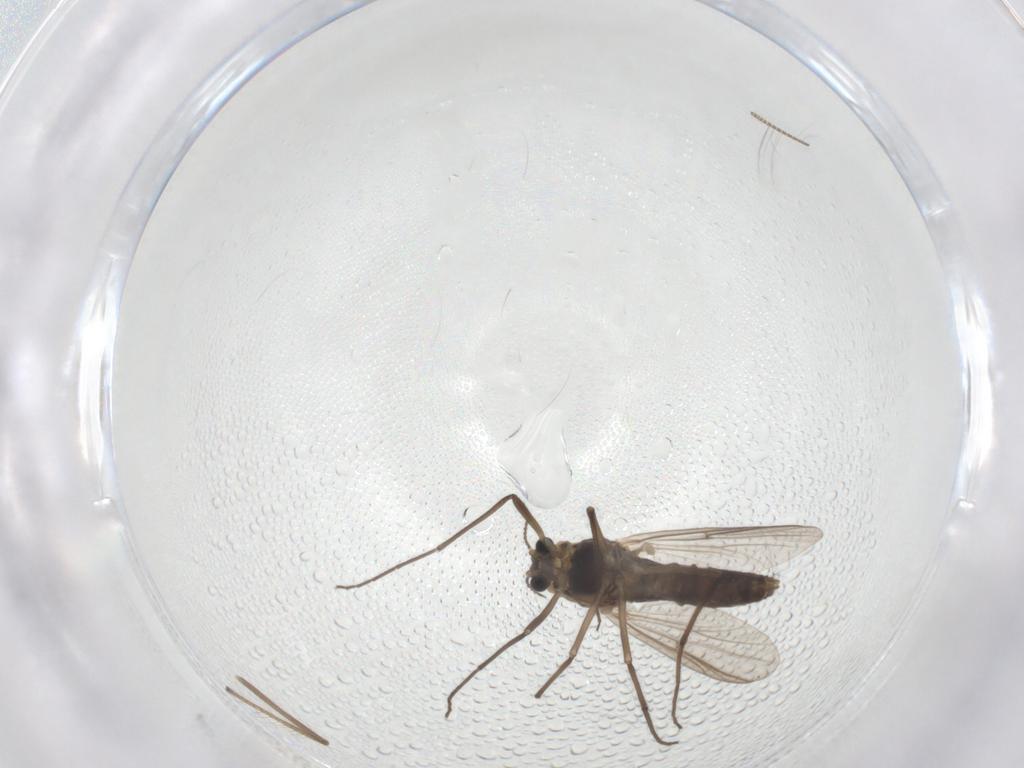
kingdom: Animalia
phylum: Arthropoda
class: Insecta
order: Diptera
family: Chironomidae
